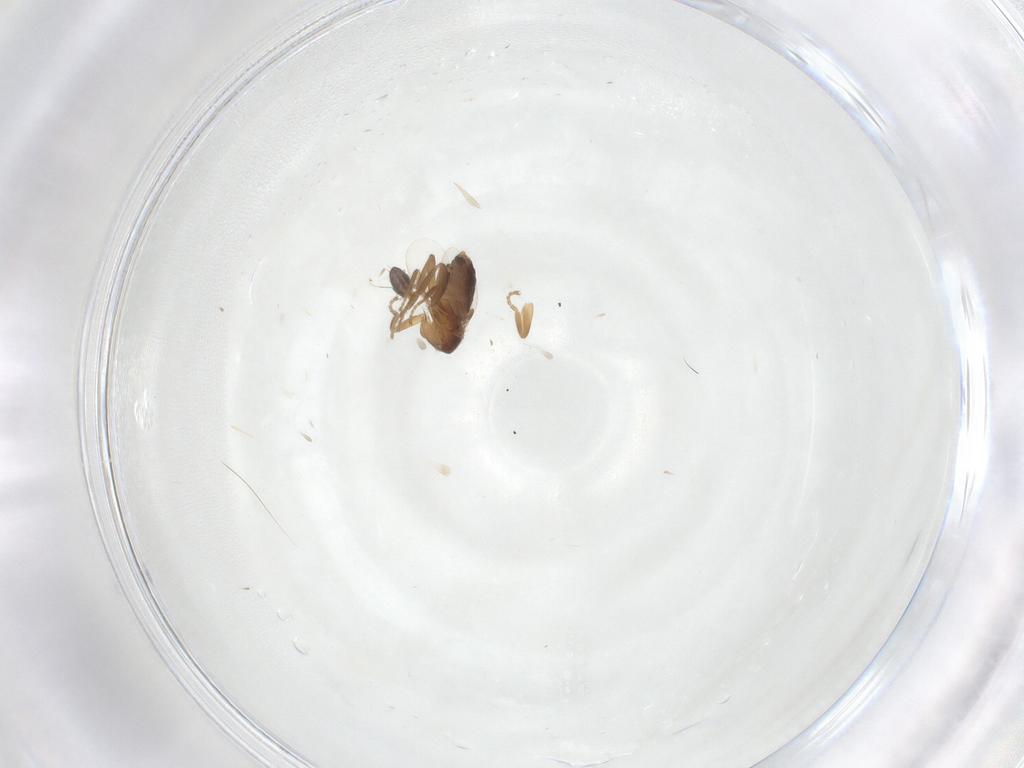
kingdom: Animalia
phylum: Arthropoda
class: Insecta
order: Diptera
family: Phoridae
